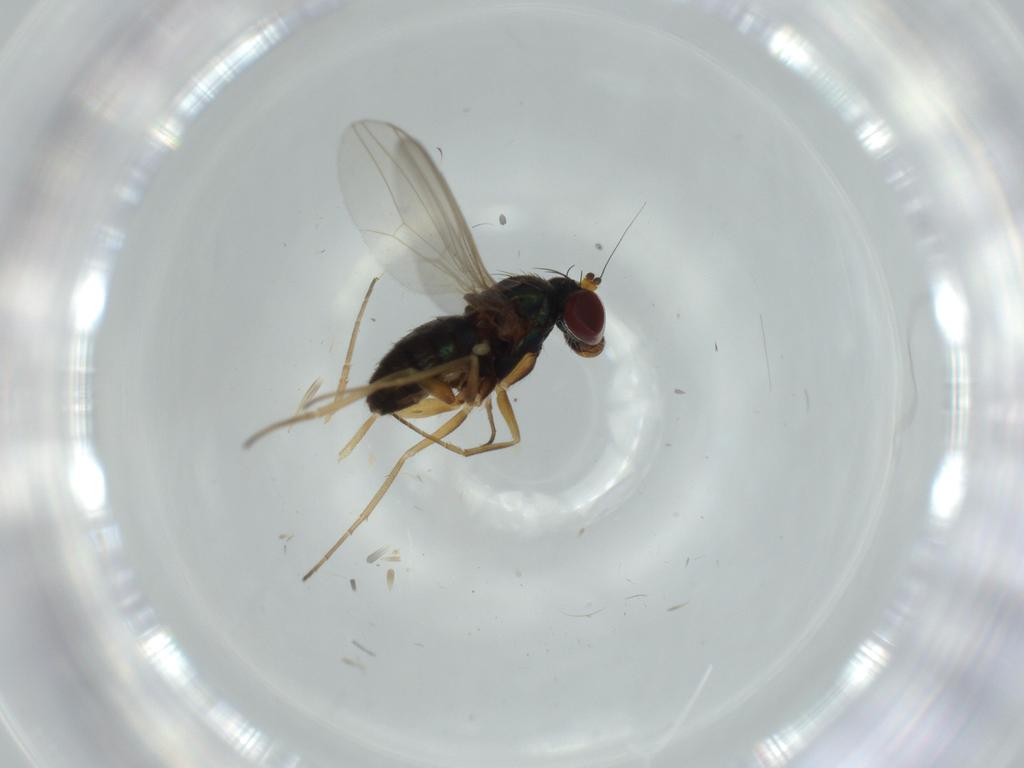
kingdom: Animalia
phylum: Arthropoda
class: Insecta
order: Diptera
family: Cecidomyiidae
